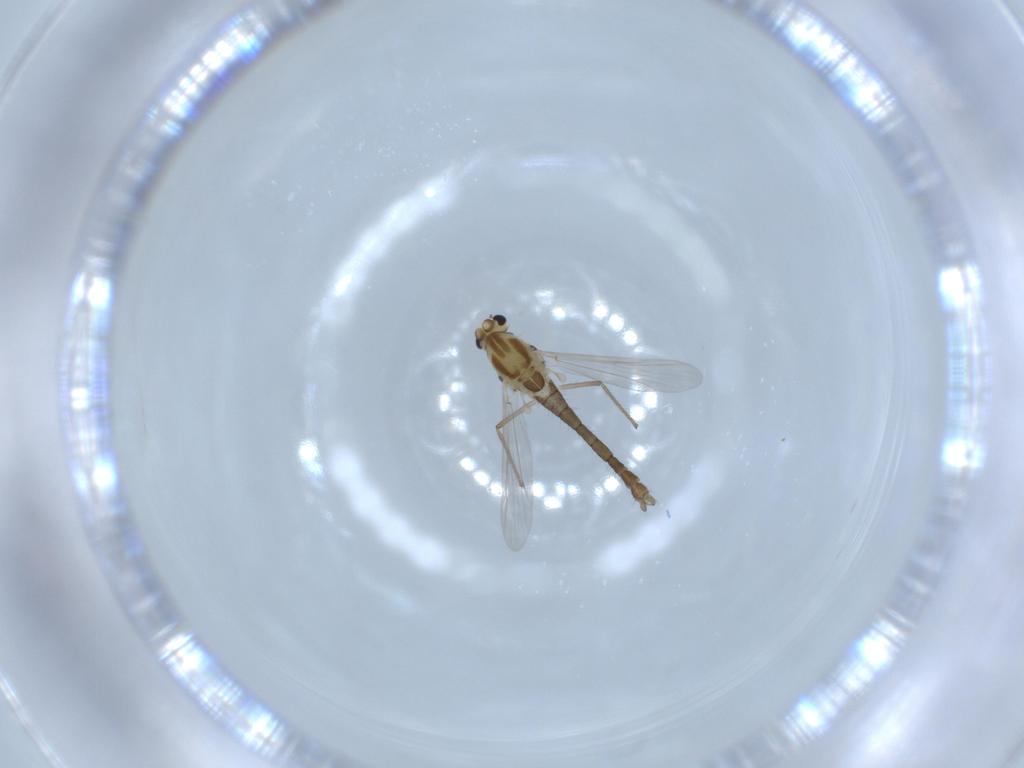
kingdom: Animalia
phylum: Arthropoda
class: Insecta
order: Diptera
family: Chironomidae
